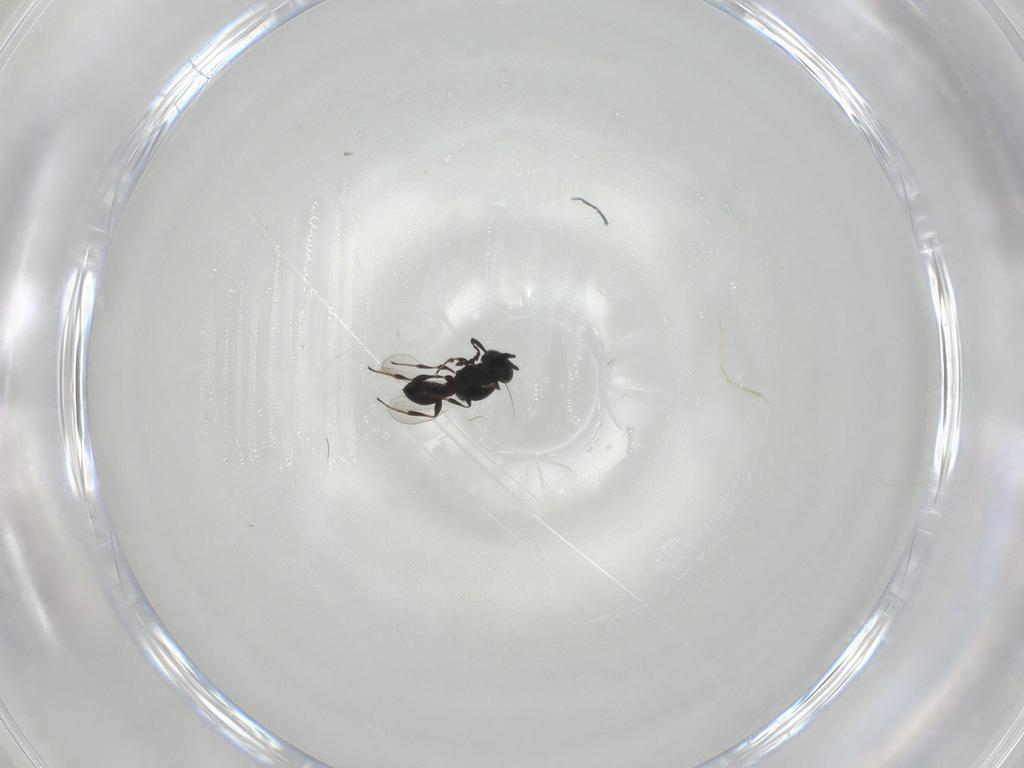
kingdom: Animalia
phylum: Arthropoda
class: Insecta
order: Hymenoptera
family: Platygastridae
